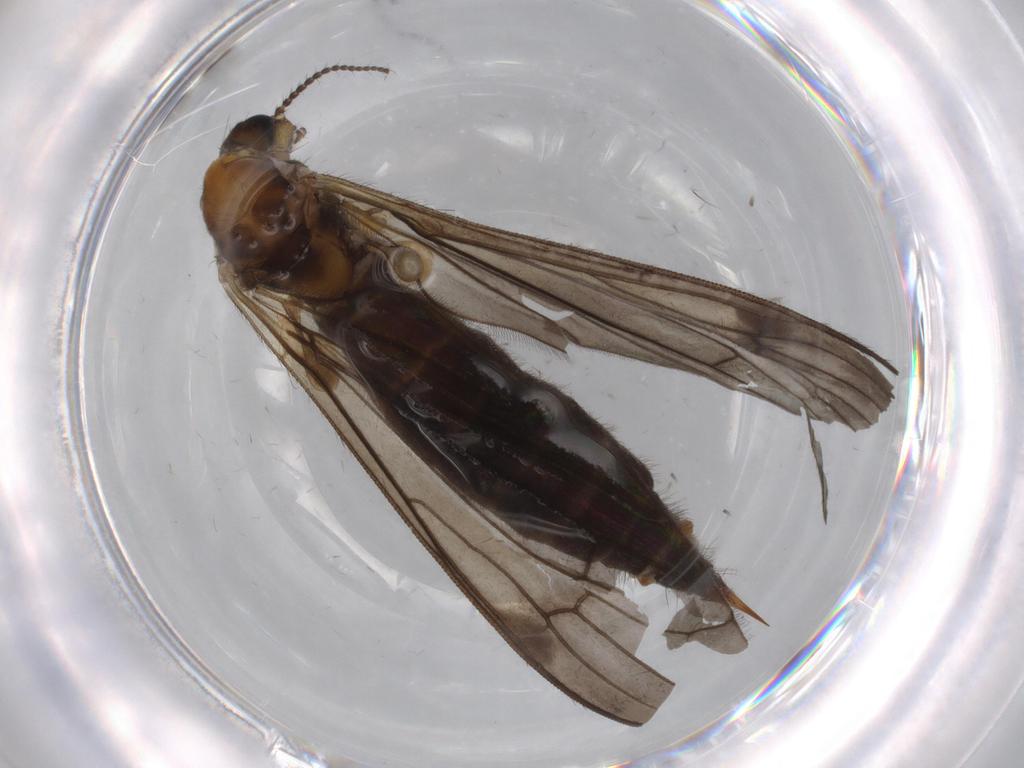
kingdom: Animalia
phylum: Arthropoda
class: Insecta
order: Diptera
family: Limoniidae
